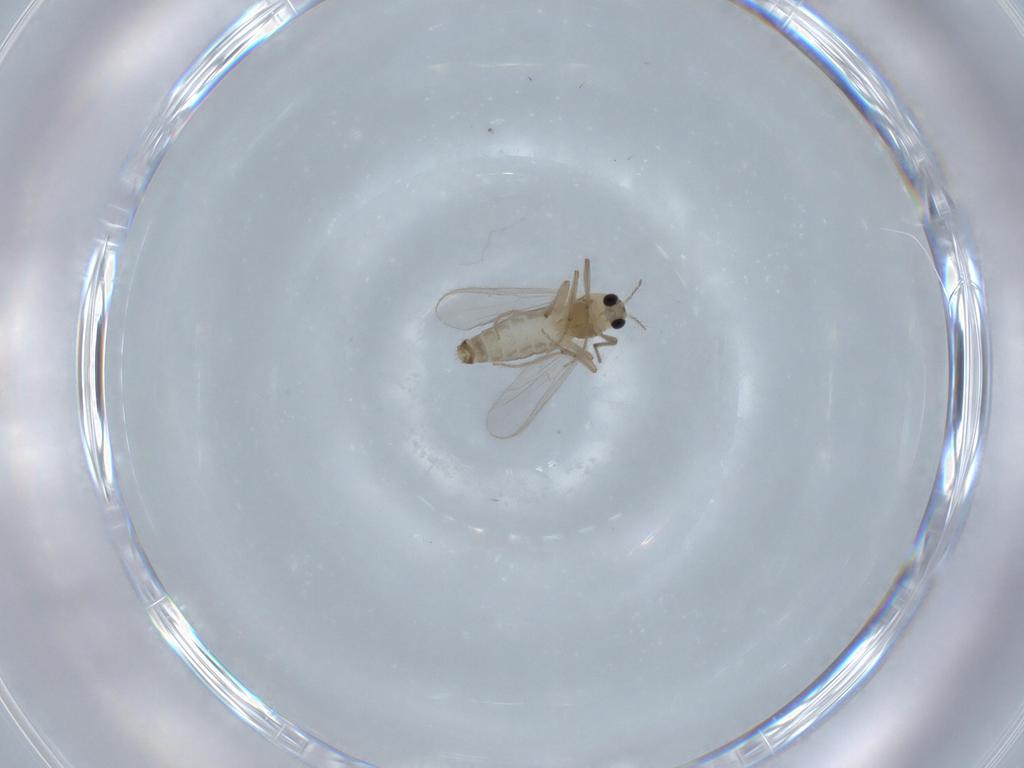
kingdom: Animalia
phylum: Arthropoda
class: Insecta
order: Diptera
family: Chironomidae
